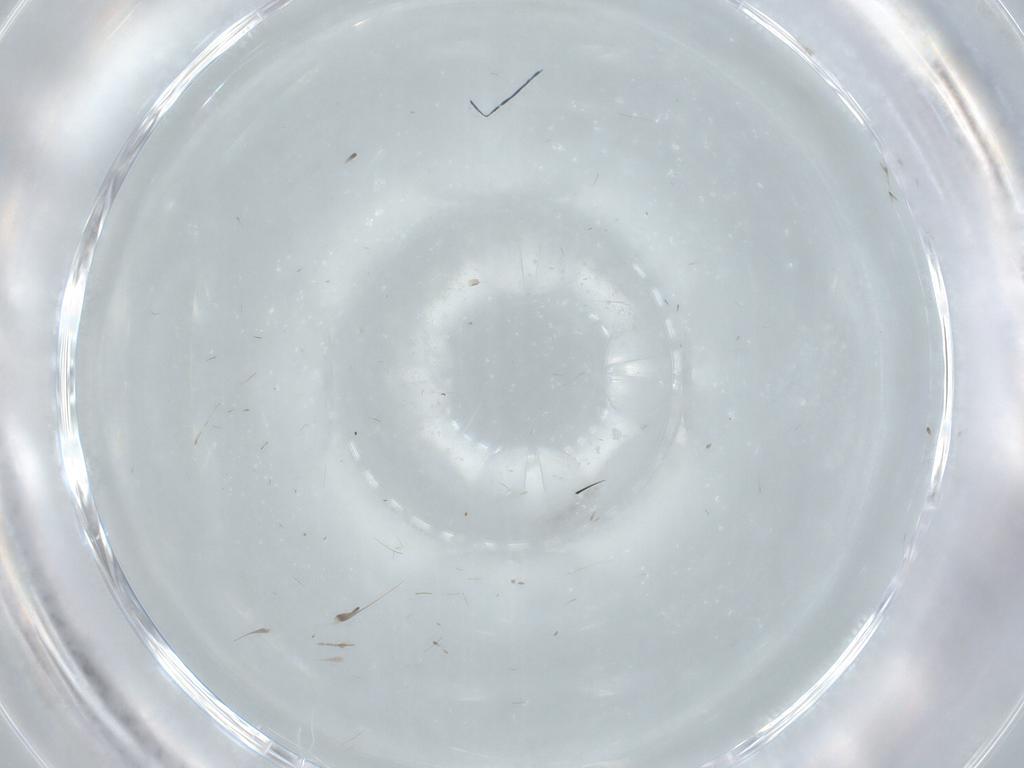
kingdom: Animalia
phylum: Arthropoda
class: Insecta
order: Diptera
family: Cecidomyiidae
